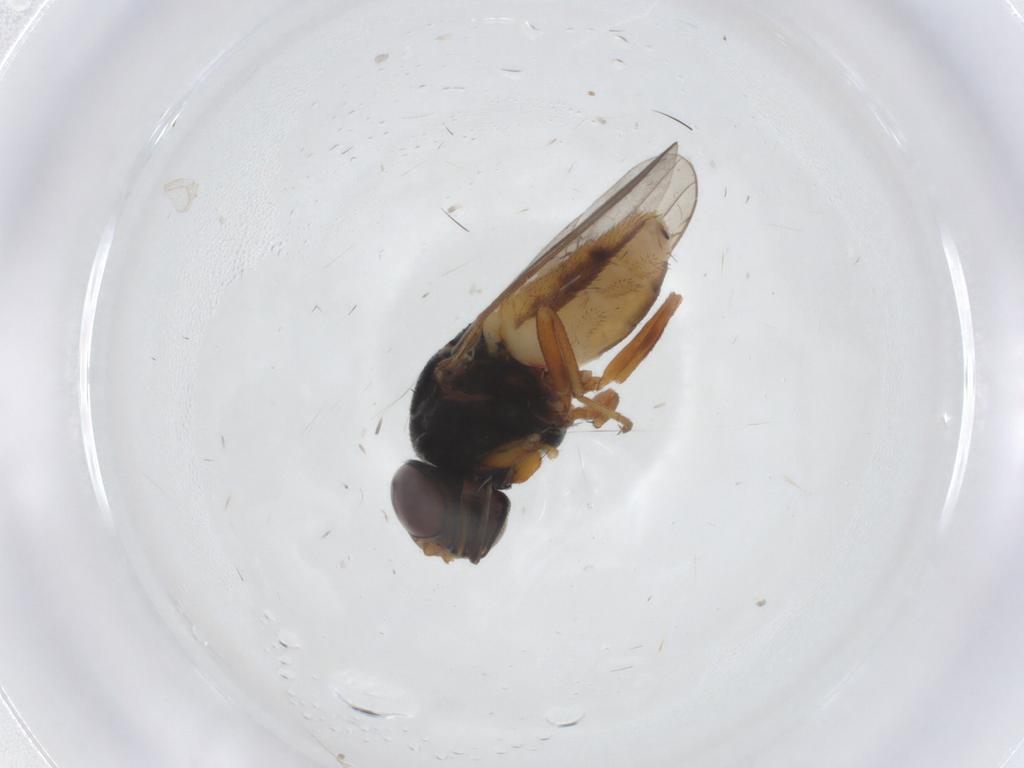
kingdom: Animalia
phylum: Arthropoda
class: Insecta
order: Diptera
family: Chloropidae
